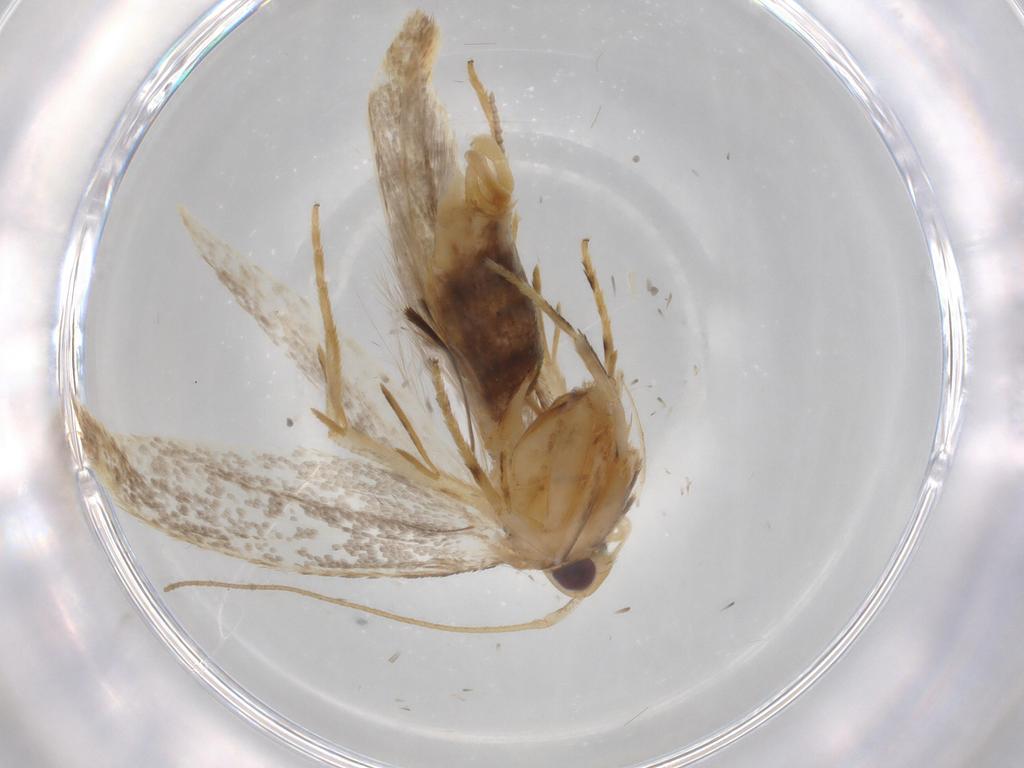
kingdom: Animalia
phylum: Arthropoda
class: Insecta
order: Lepidoptera
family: Cosmopterigidae
